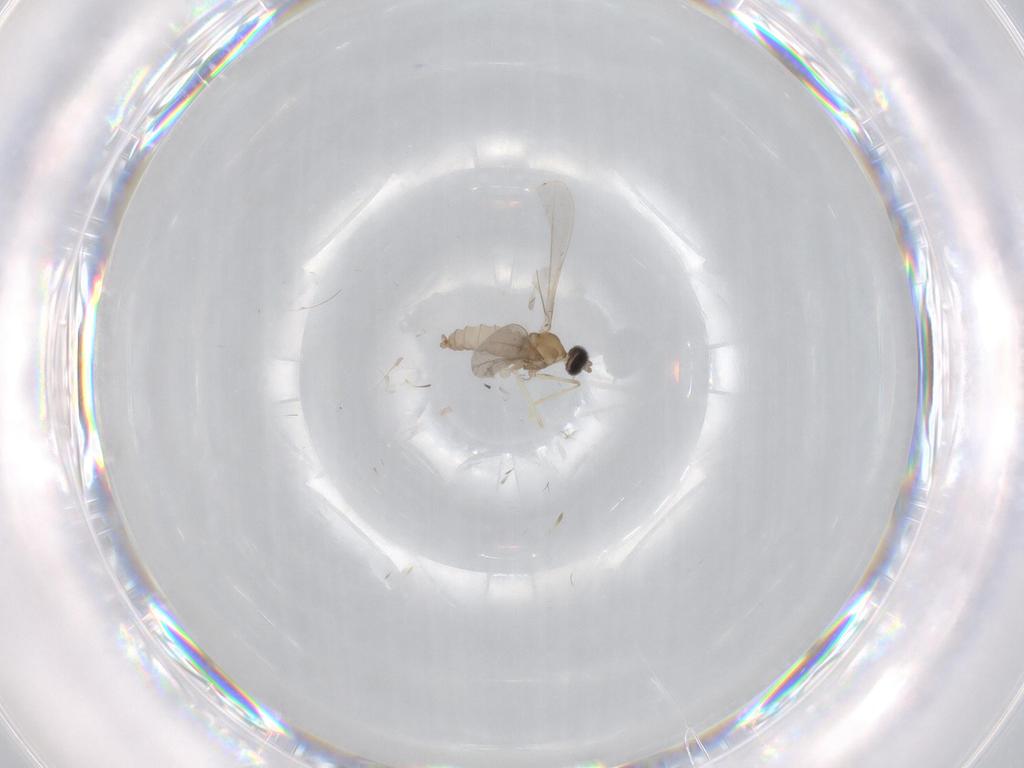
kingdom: Animalia
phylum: Arthropoda
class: Insecta
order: Diptera
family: Cecidomyiidae
